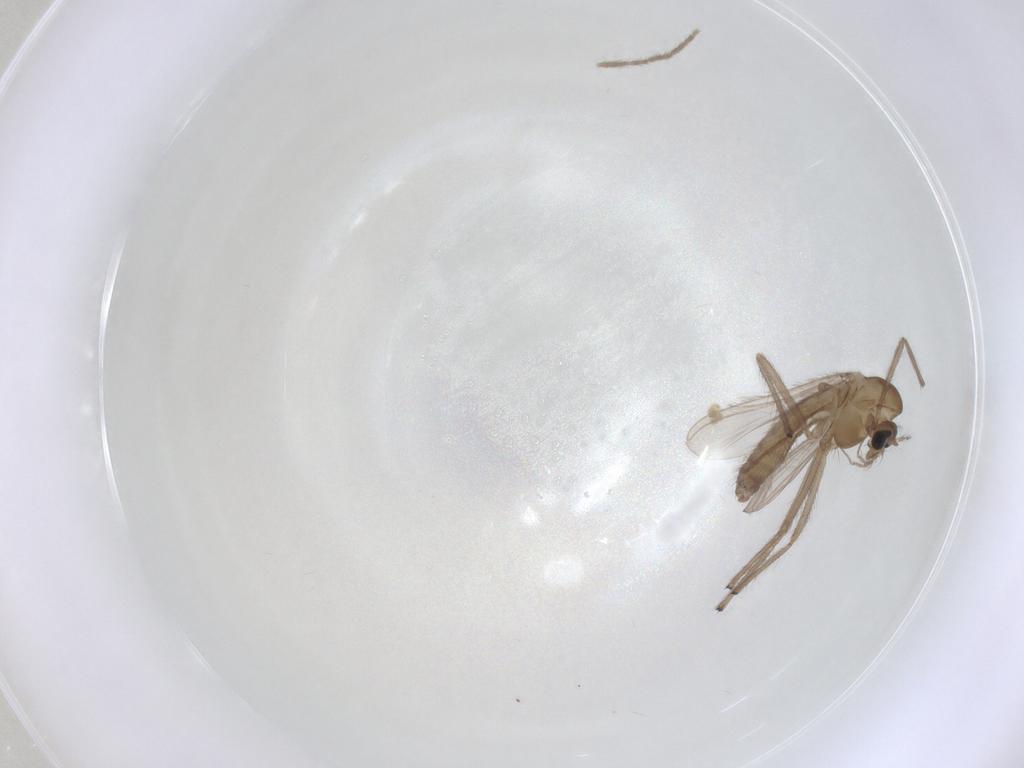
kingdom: Animalia
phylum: Arthropoda
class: Insecta
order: Diptera
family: Chironomidae
